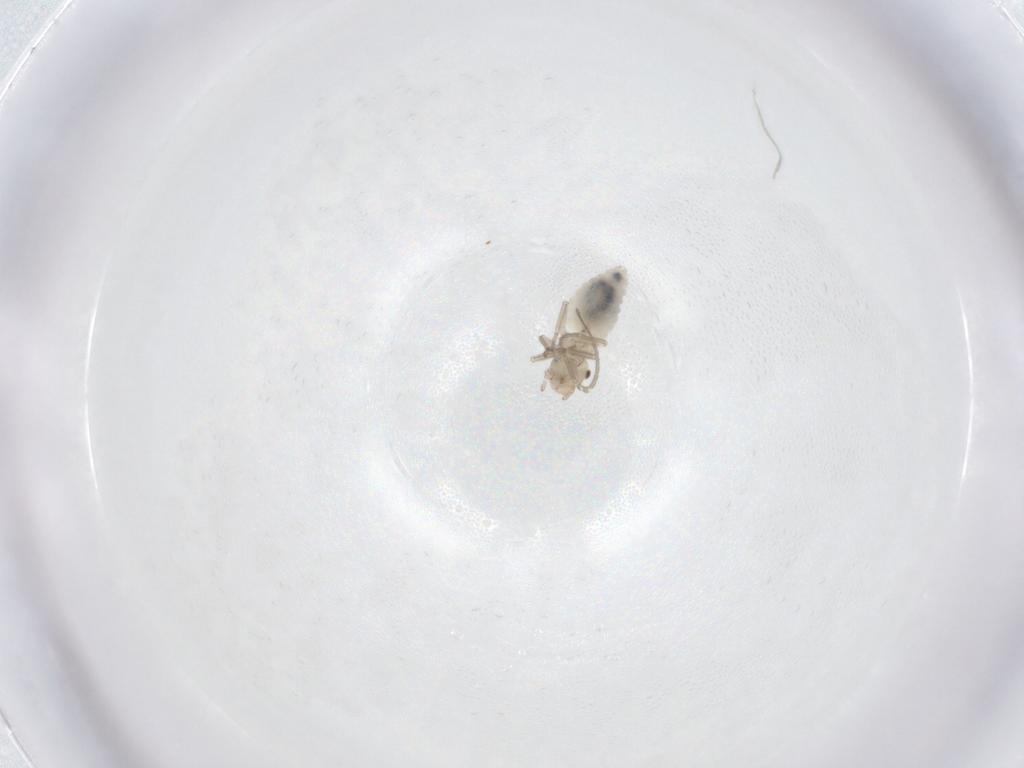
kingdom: Animalia
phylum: Arthropoda
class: Insecta
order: Psocodea
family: Caeciliusidae
